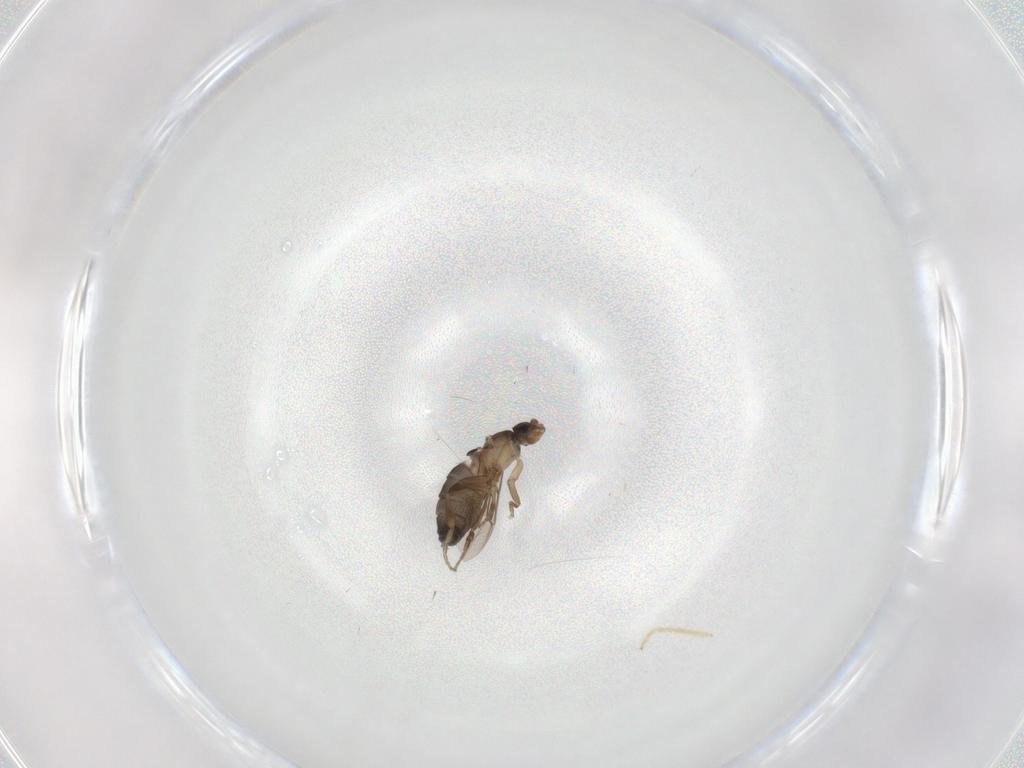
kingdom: Animalia
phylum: Arthropoda
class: Insecta
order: Diptera
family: Phoridae
